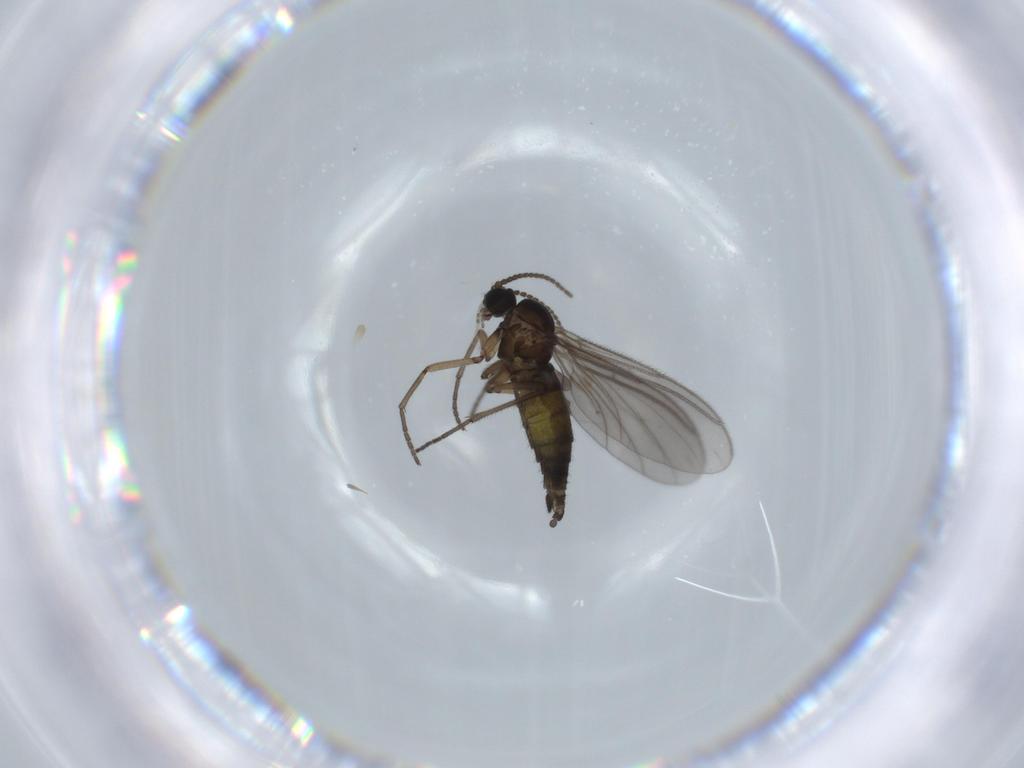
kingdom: Animalia
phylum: Arthropoda
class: Insecta
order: Diptera
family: Sciaridae
